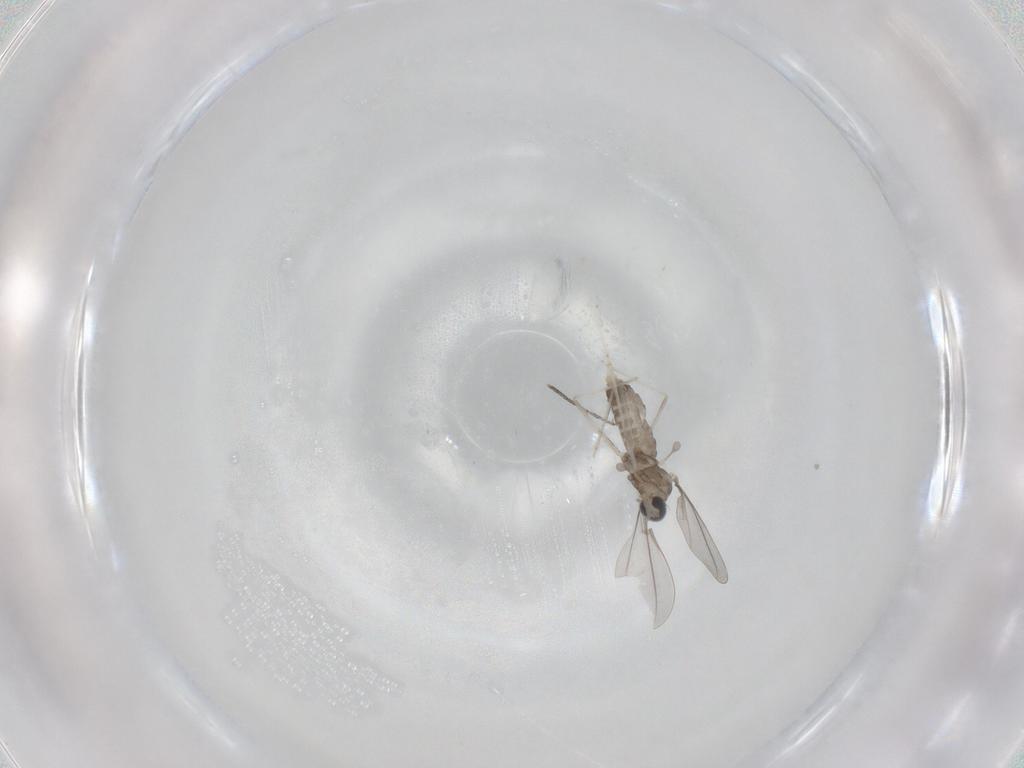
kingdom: Animalia
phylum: Arthropoda
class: Insecta
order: Diptera
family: Cecidomyiidae
